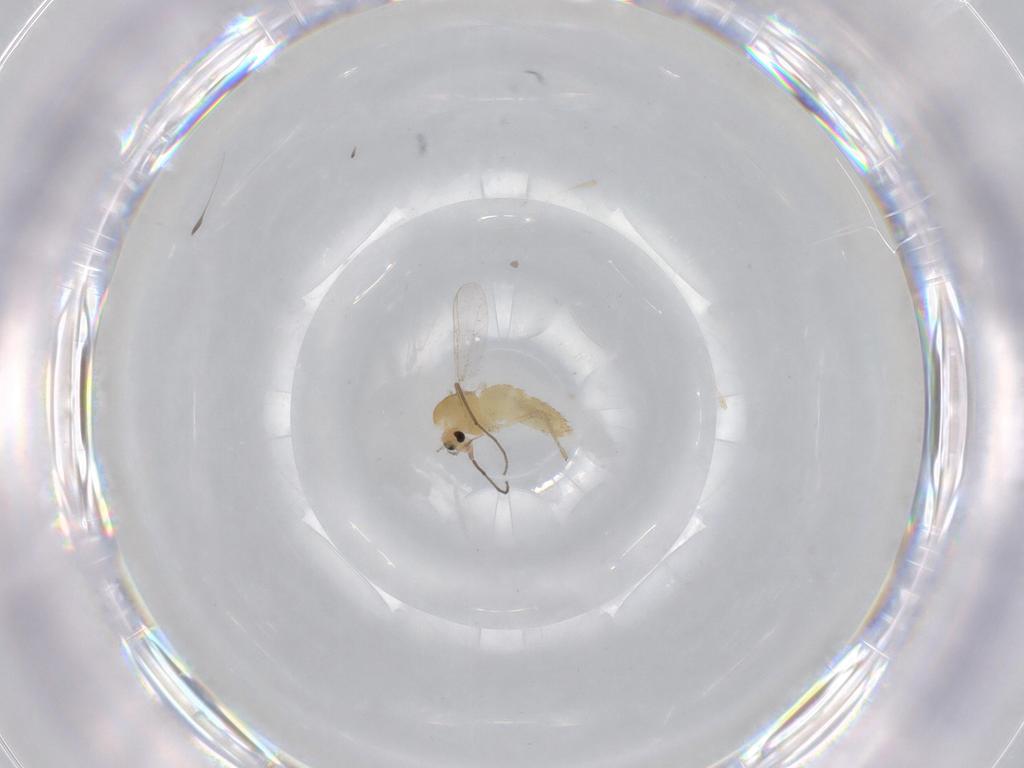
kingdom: Animalia
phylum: Arthropoda
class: Insecta
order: Diptera
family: Chironomidae
